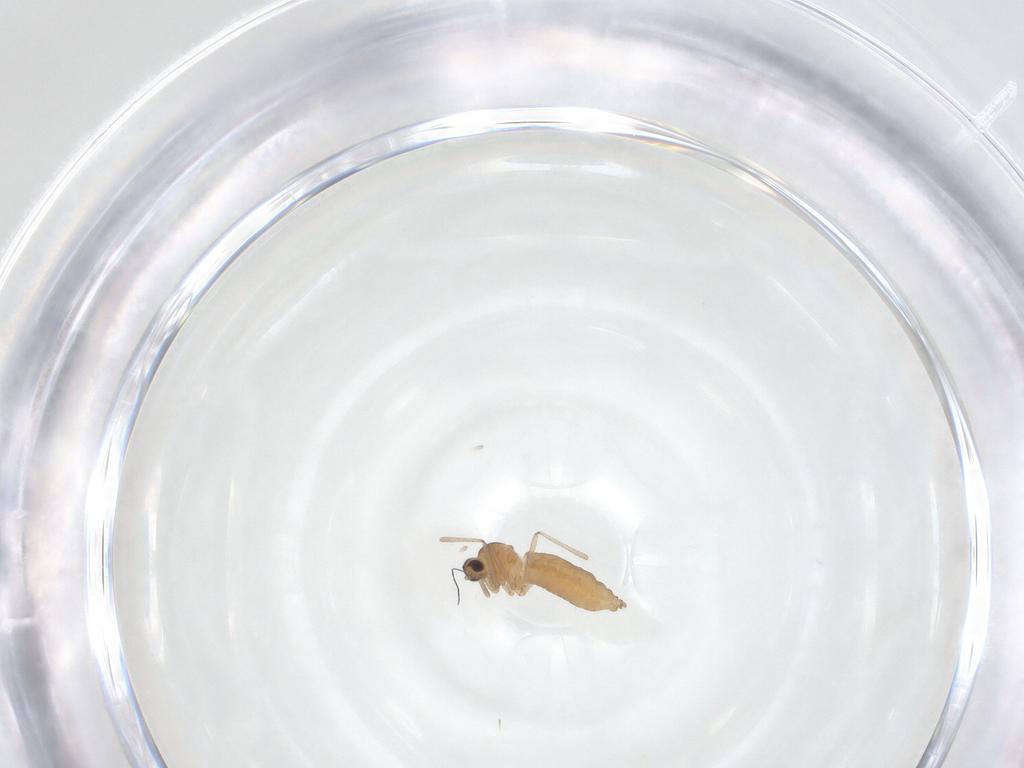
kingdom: Animalia
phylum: Arthropoda
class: Insecta
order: Diptera
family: Cecidomyiidae
